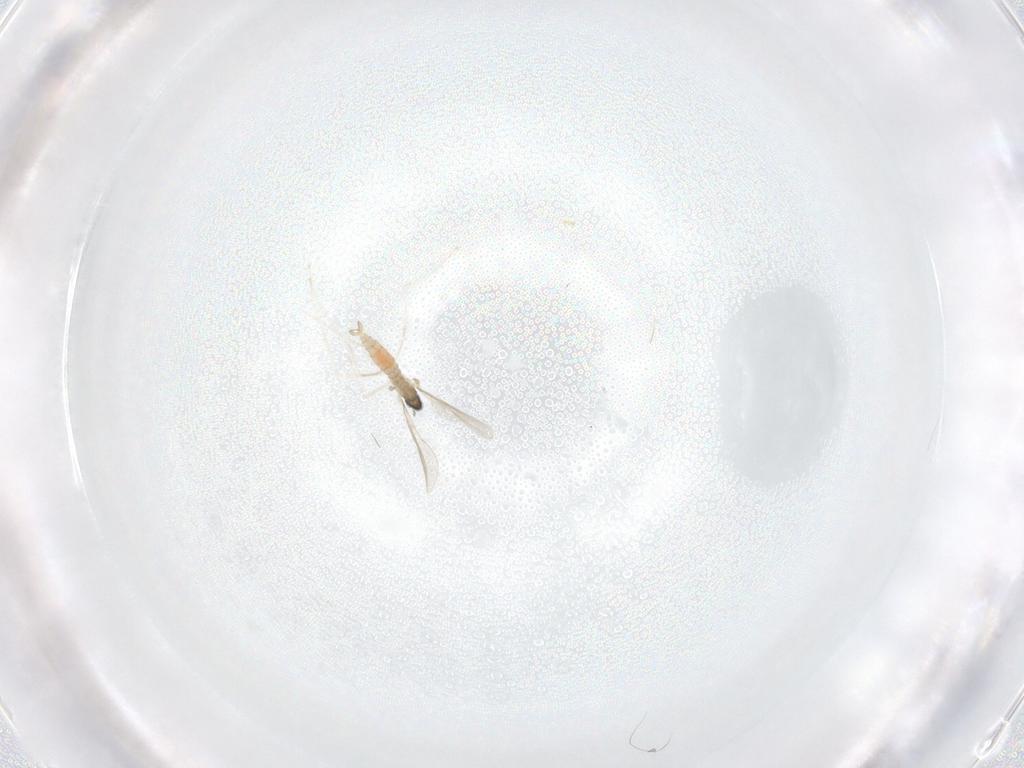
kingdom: Animalia
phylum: Arthropoda
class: Insecta
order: Diptera
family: Cecidomyiidae
